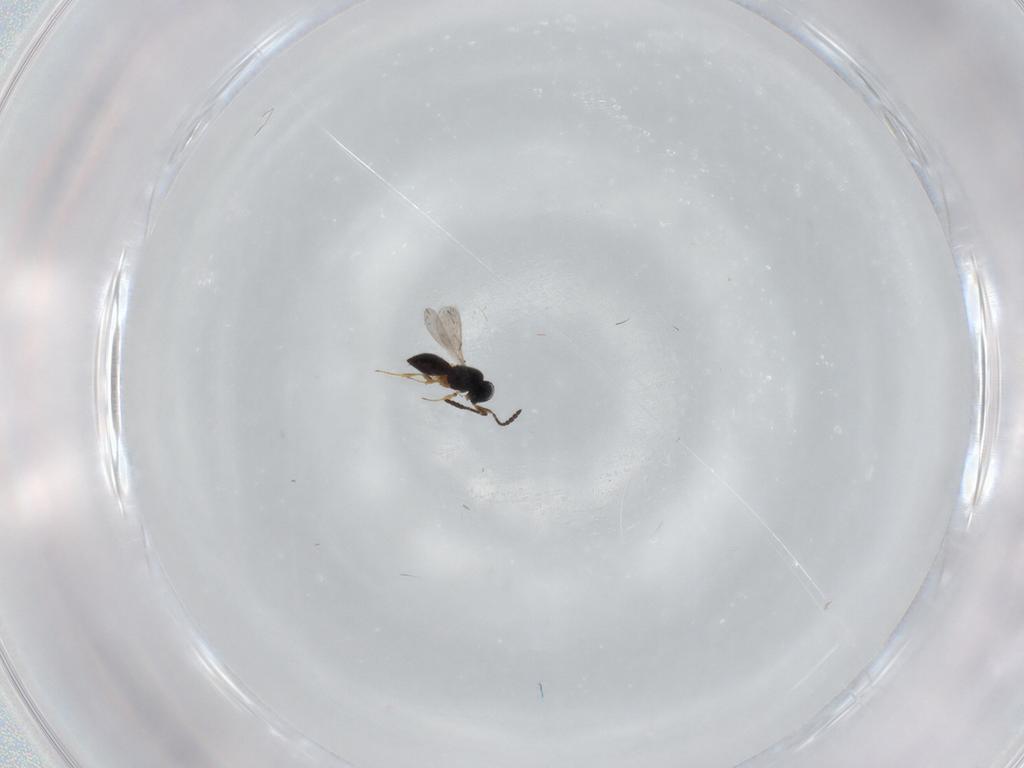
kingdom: Animalia
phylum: Arthropoda
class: Insecta
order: Hymenoptera
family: Scelionidae
